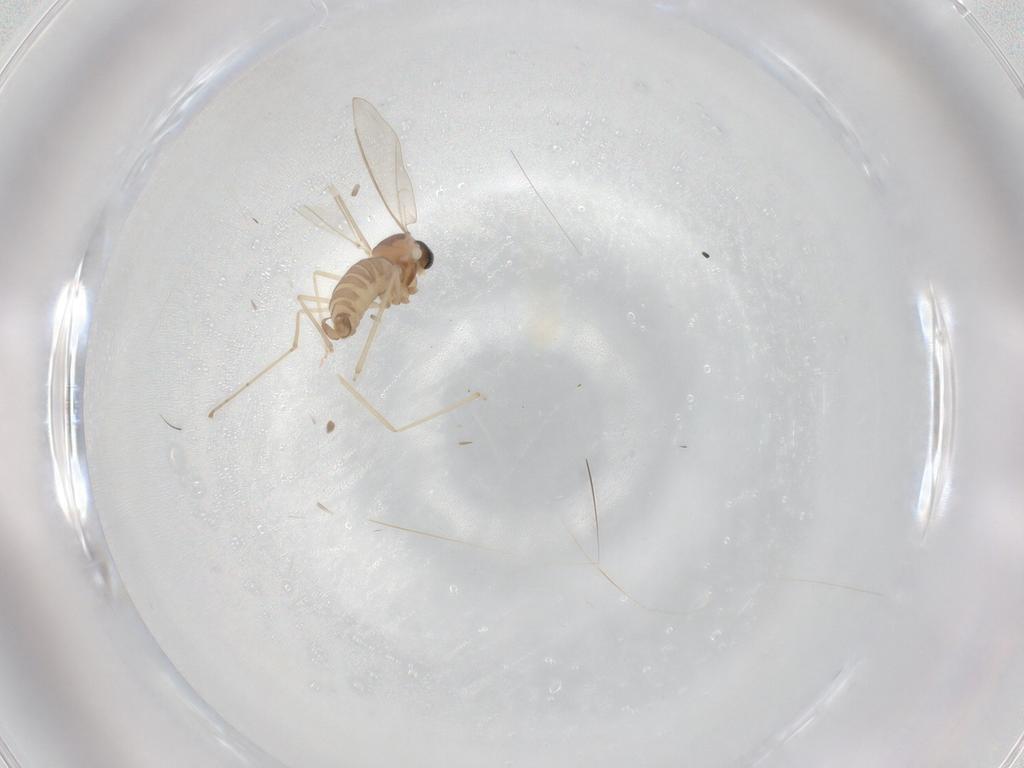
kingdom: Animalia
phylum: Arthropoda
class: Insecta
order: Diptera
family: Cecidomyiidae
